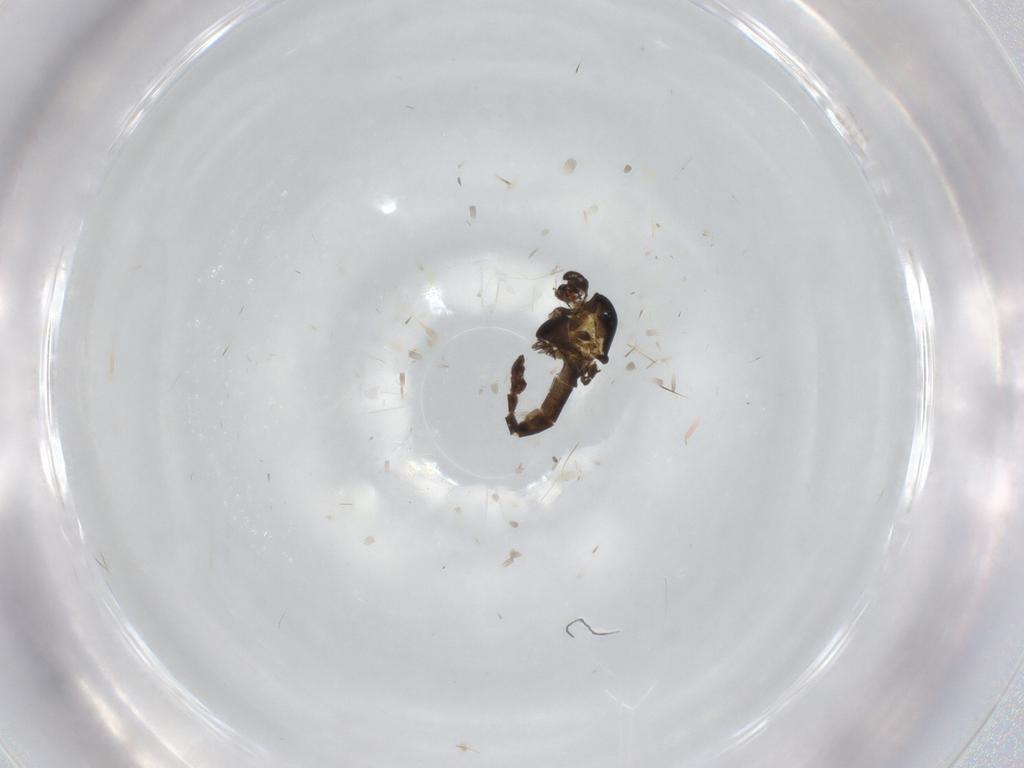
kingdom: Animalia
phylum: Arthropoda
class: Insecta
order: Diptera
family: Chironomidae
